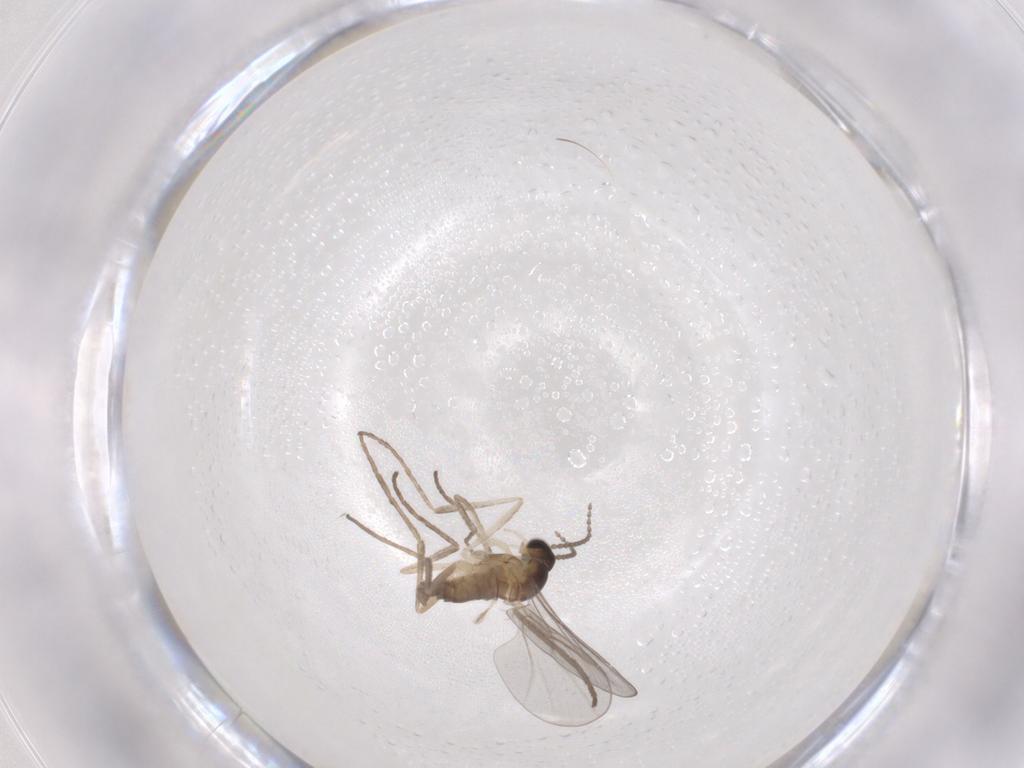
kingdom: Animalia
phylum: Arthropoda
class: Insecta
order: Diptera
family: Cecidomyiidae
